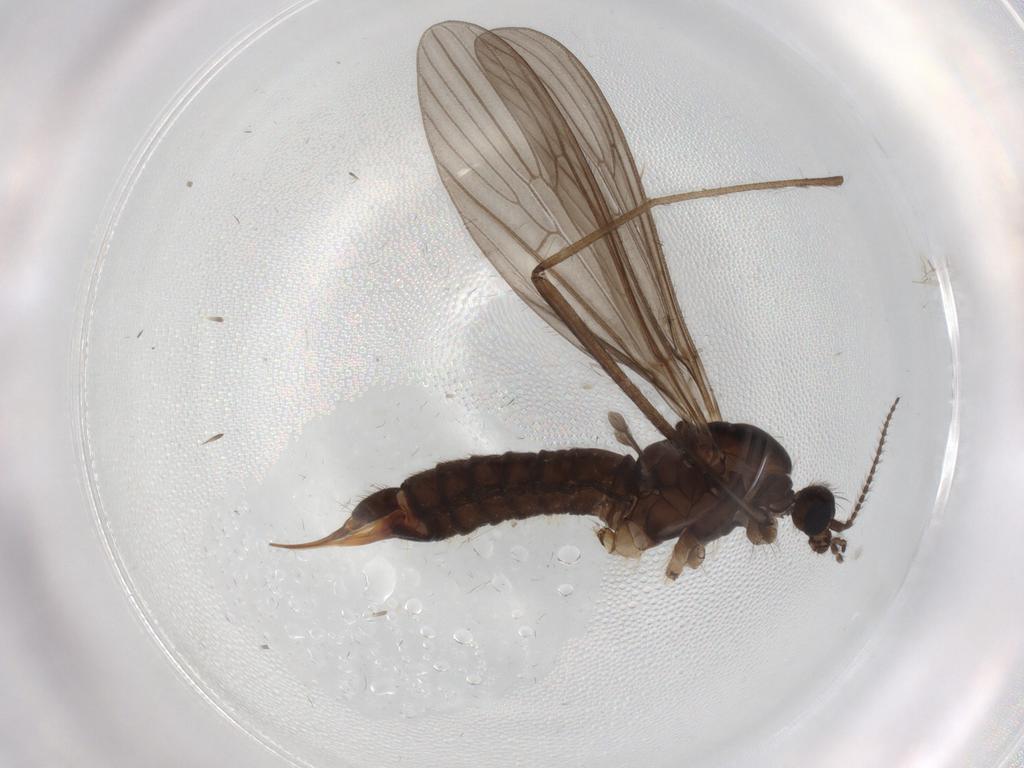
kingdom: Animalia
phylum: Arthropoda
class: Insecta
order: Diptera
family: Limoniidae
